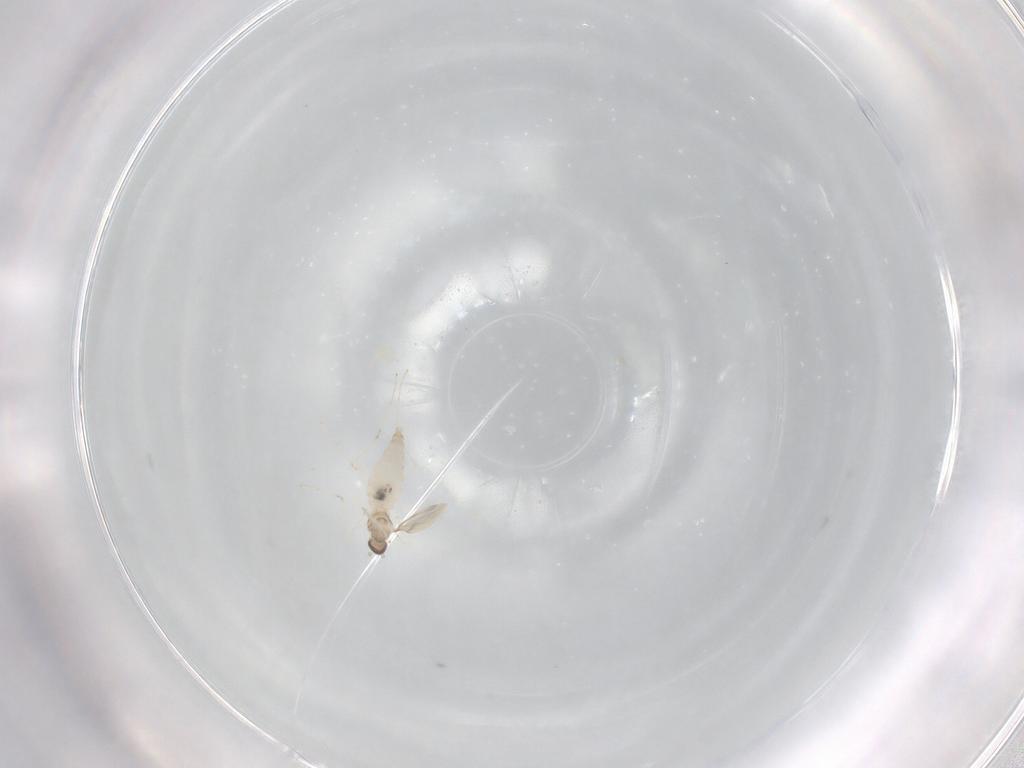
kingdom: Animalia
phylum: Arthropoda
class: Insecta
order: Diptera
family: Cecidomyiidae
